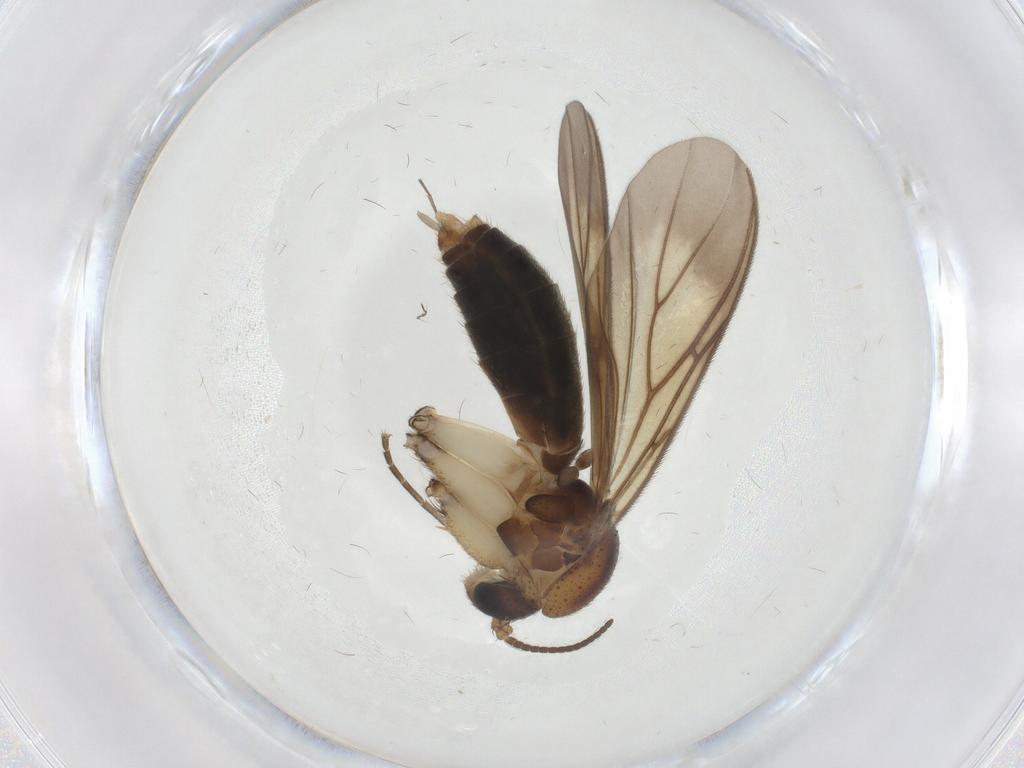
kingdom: Animalia
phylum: Arthropoda
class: Insecta
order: Diptera
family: Mycetophilidae
